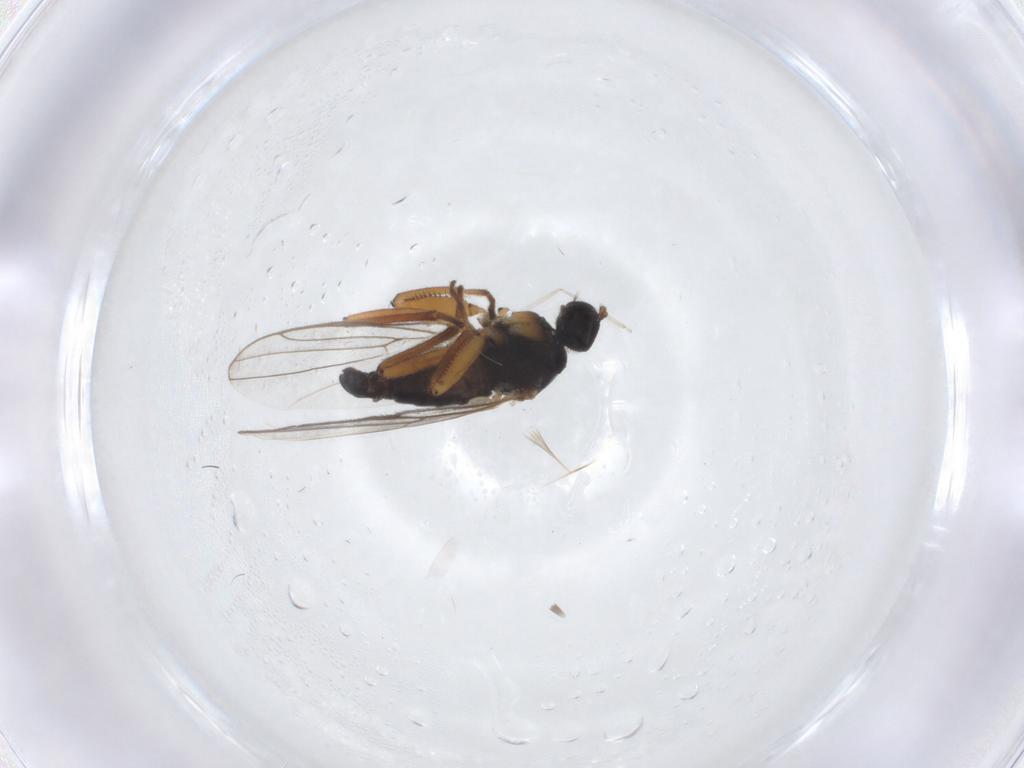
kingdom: Animalia
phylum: Arthropoda
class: Insecta
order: Diptera
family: Hybotidae
